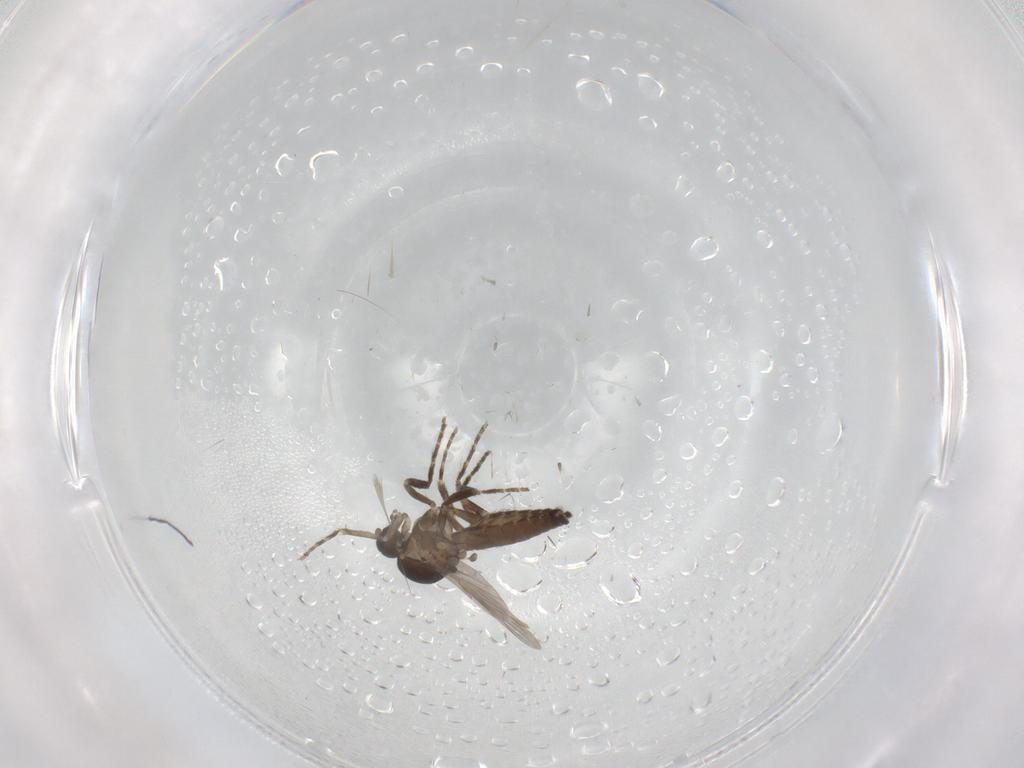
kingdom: Animalia
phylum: Arthropoda
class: Insecta
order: Diptera
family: Ceratopogonidae
